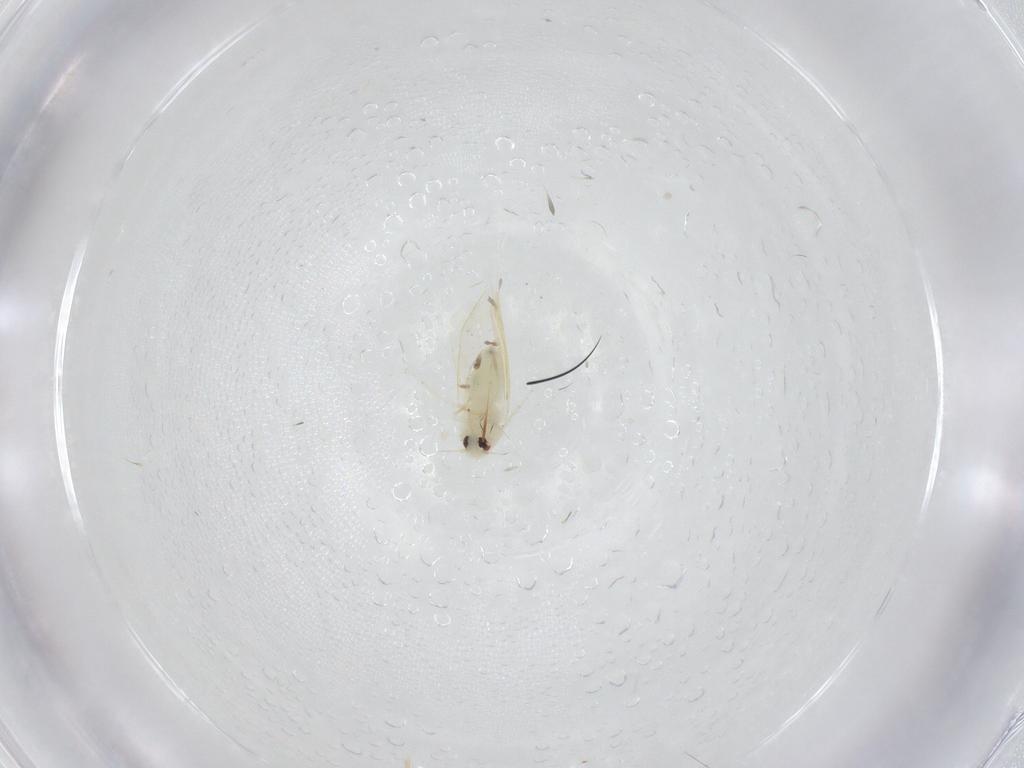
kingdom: Animalia
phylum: Arthropoda
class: Insecta
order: Hemiptera
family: Aleyrodidae
